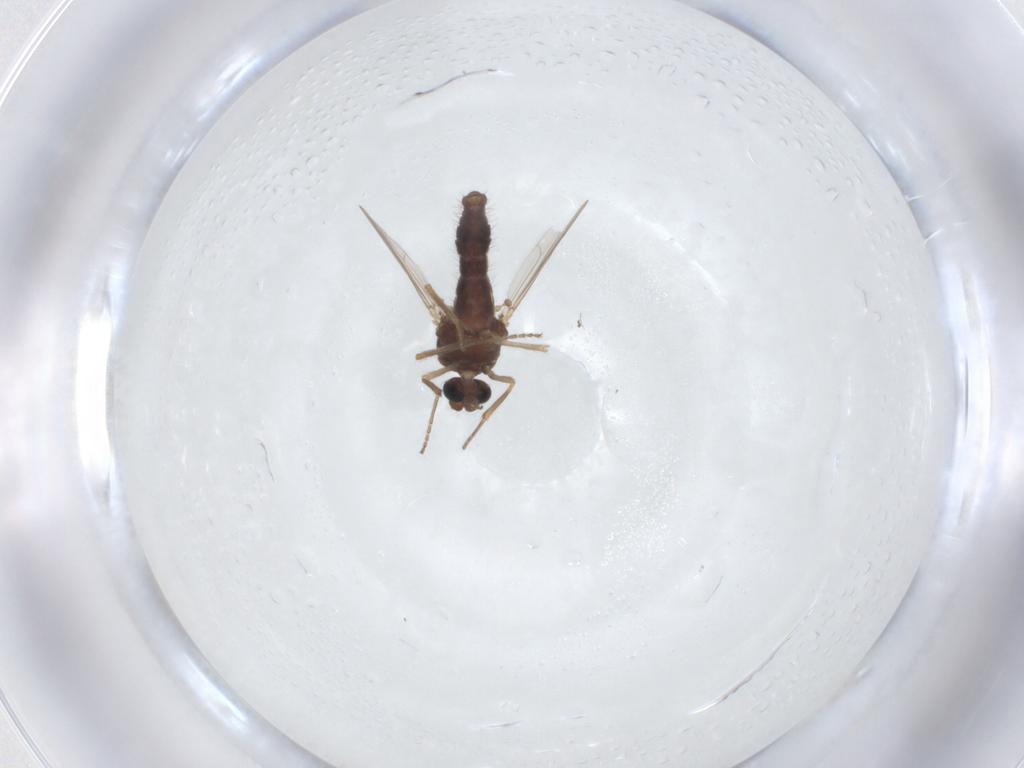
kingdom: Animalia
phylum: Arthropoda
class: Insecta
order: Diptera
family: Ceratopogonidae
